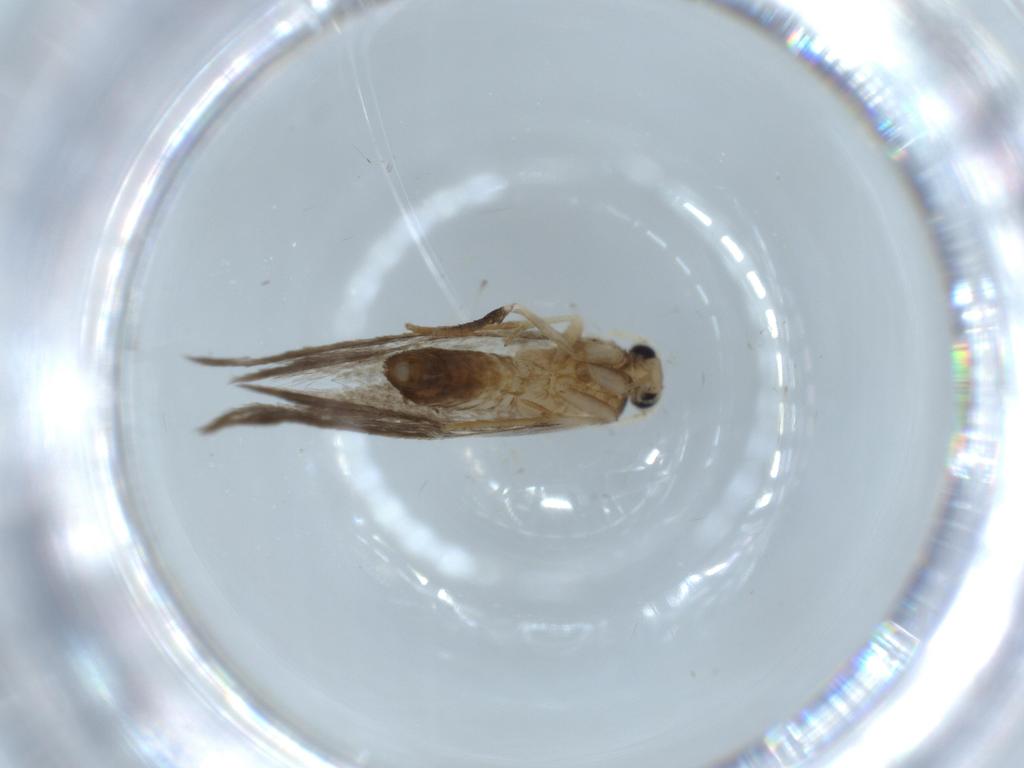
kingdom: Animalia
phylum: Arthropoda
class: Insecta
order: Lepidoptera
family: Tineidae
